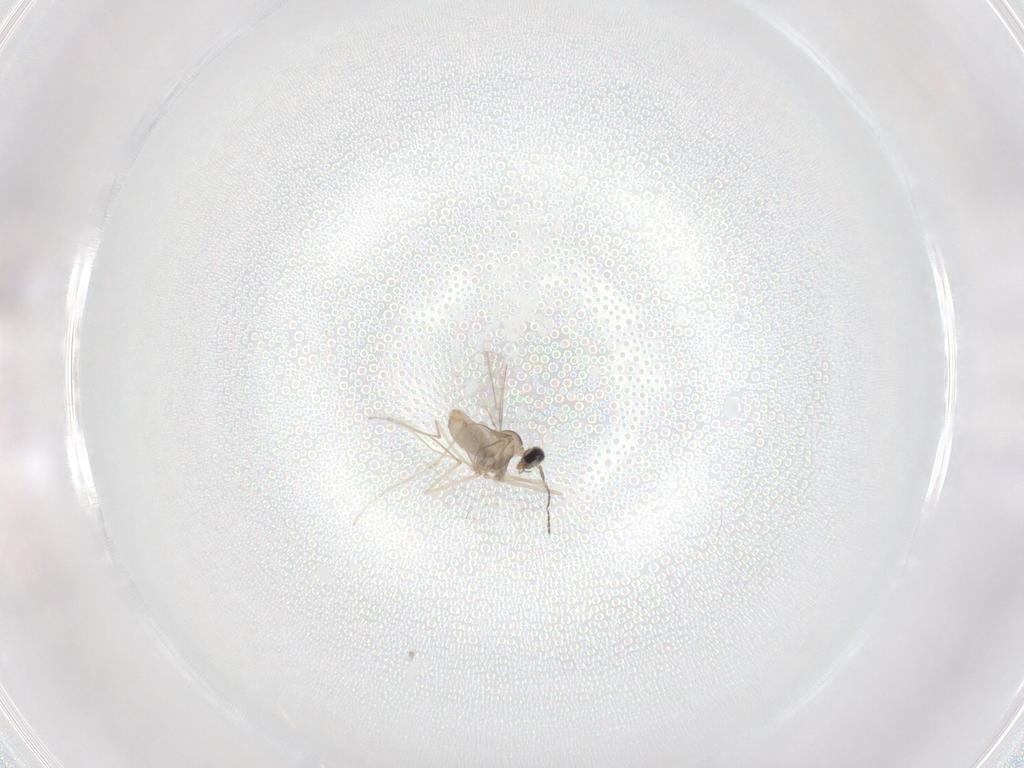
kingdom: Animalia
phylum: Arthropoda
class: Insecta
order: Diptera
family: Cecidomyiidae
